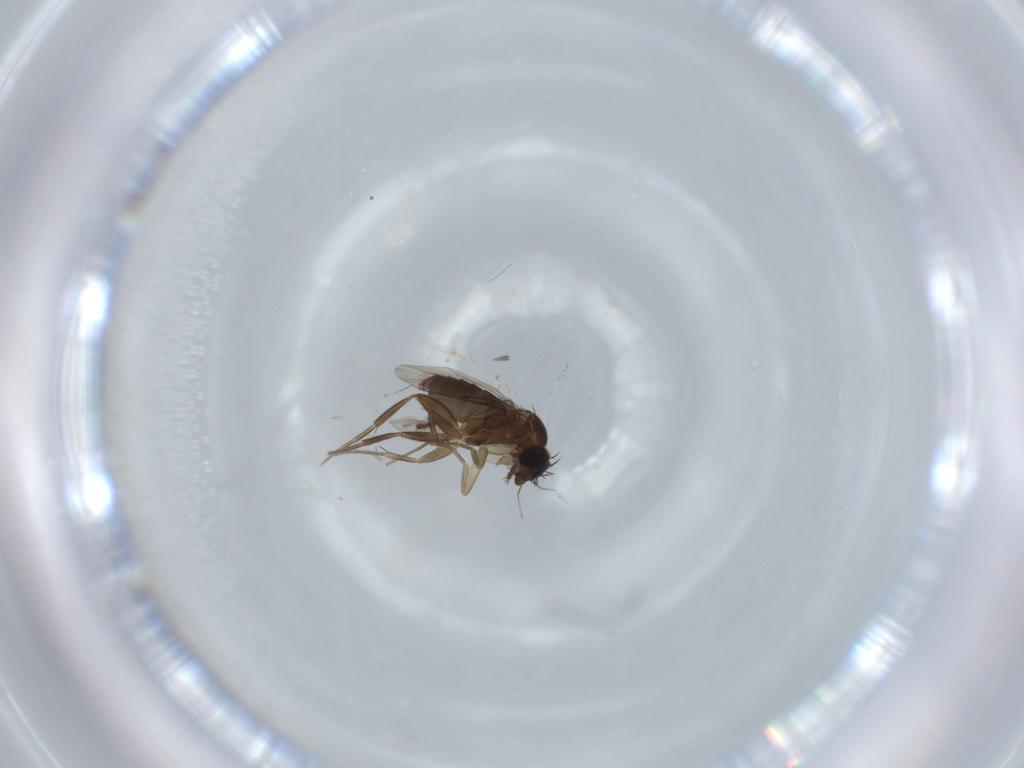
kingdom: Animalia
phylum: Arthropoda
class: Insecta
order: Diptera
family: Phoridae
